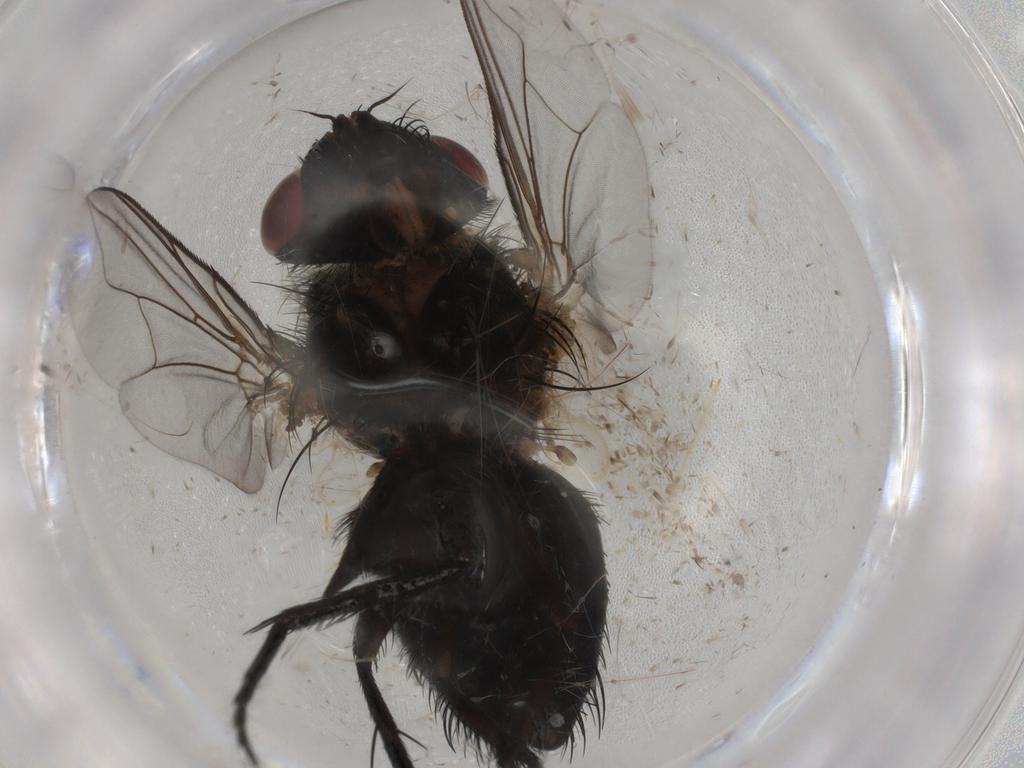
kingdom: Animalia
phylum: Arthropoda
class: Insecta
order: Diptera
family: Tachinidae
